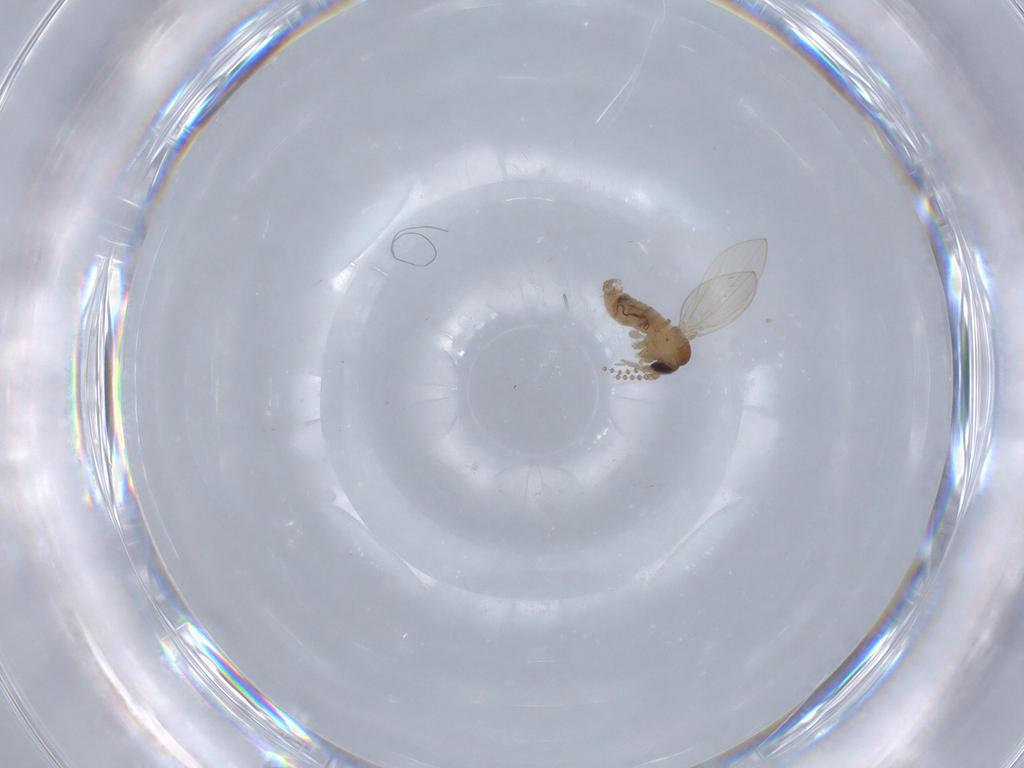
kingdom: Animalia
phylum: Arthropoda
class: Insecta
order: Diptera
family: Psychodidae
